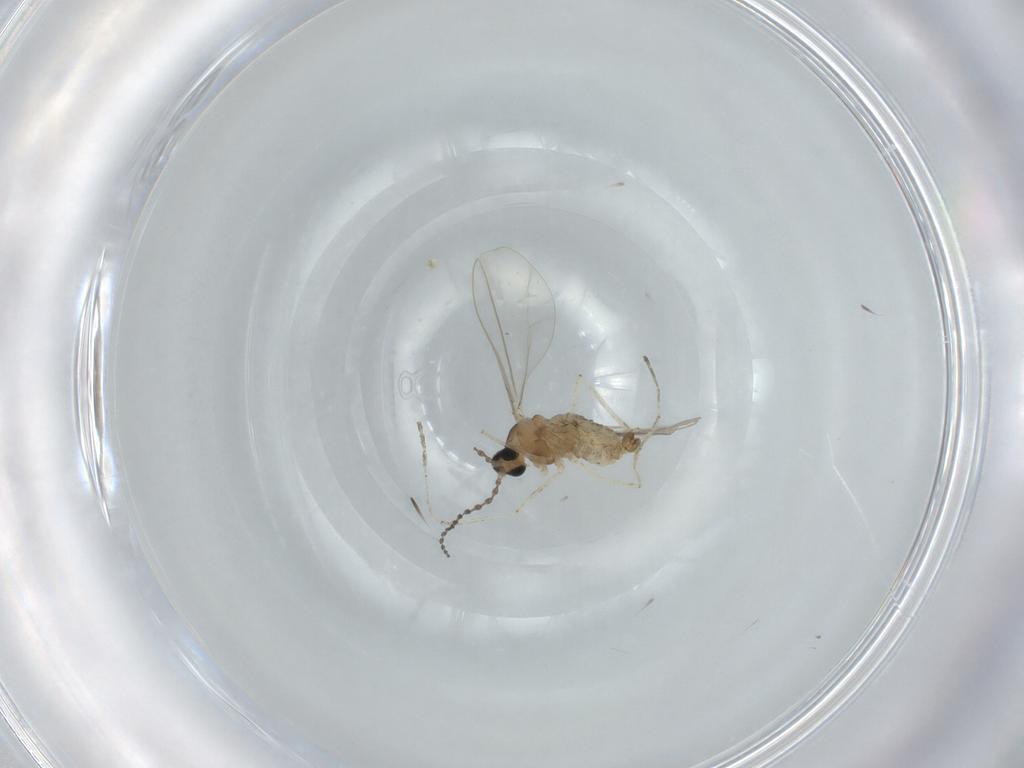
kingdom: Animalia
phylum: Arthropoda
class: Insecta
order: Diptera
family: Cecidomyiidae
